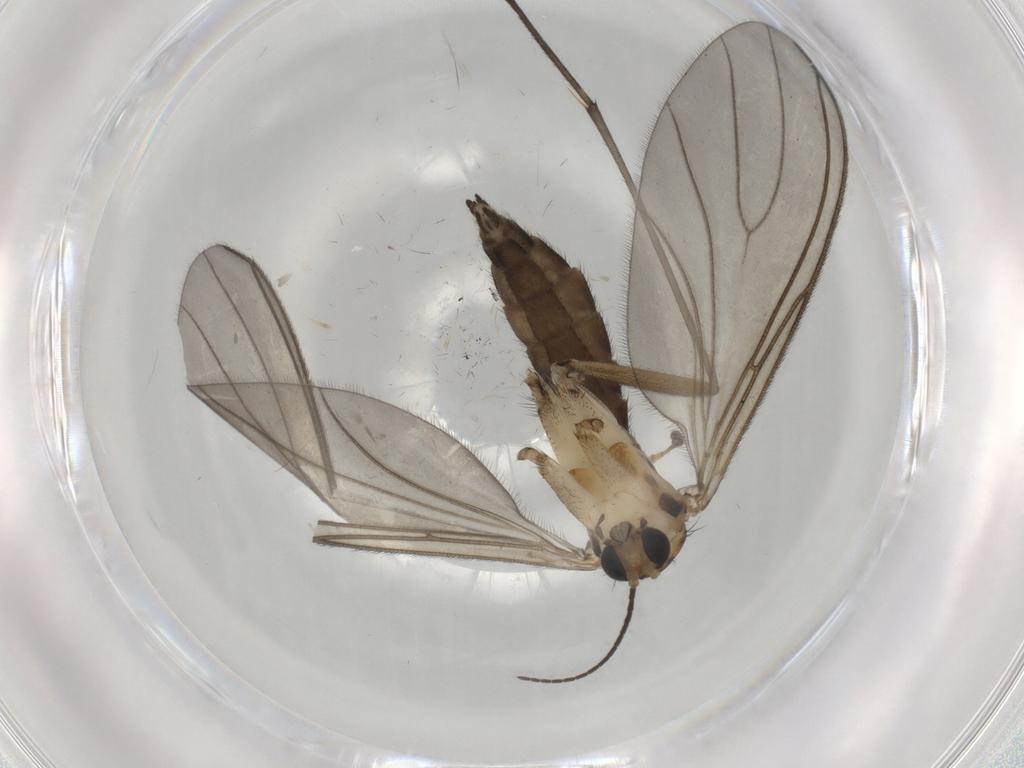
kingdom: Animalia
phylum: Arthropoda
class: Insecta
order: Diptera
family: Sciaridae
